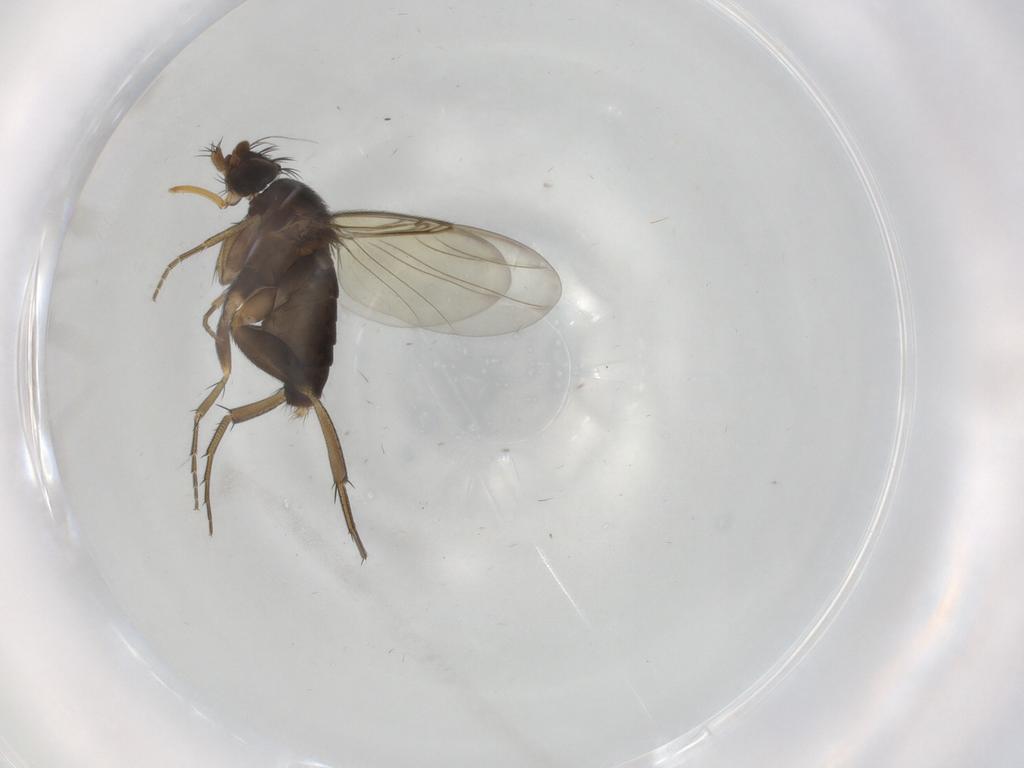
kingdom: Animalia
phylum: Arthropoda
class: Insecta
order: Diptera
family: Phoridae
